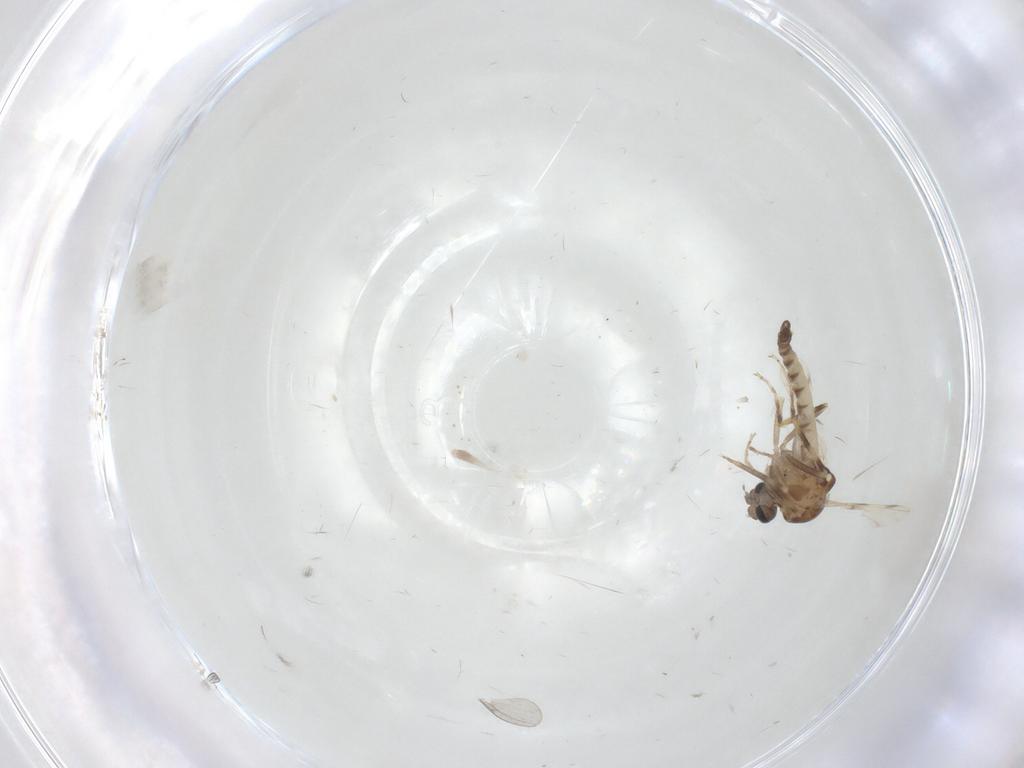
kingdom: Animalia
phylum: Arthropoda
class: Insecta
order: Diptera
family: Ceratopogonidae
